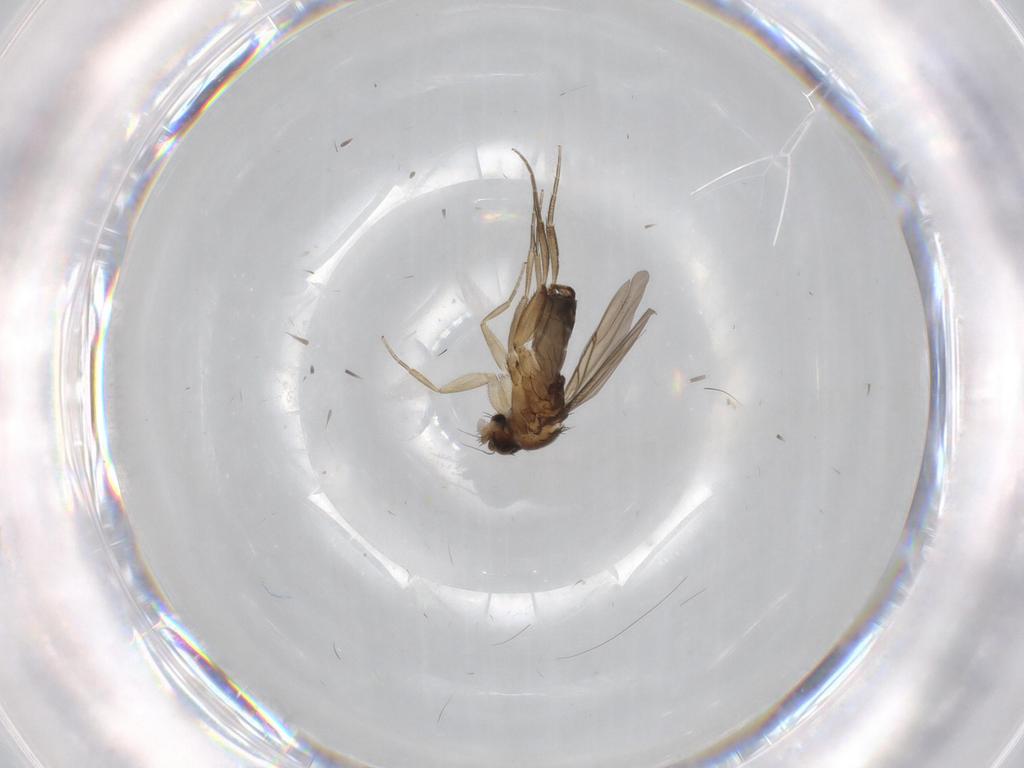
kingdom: Animalia
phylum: Arthropoda
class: Insecta
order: Diptera
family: Phoridae
